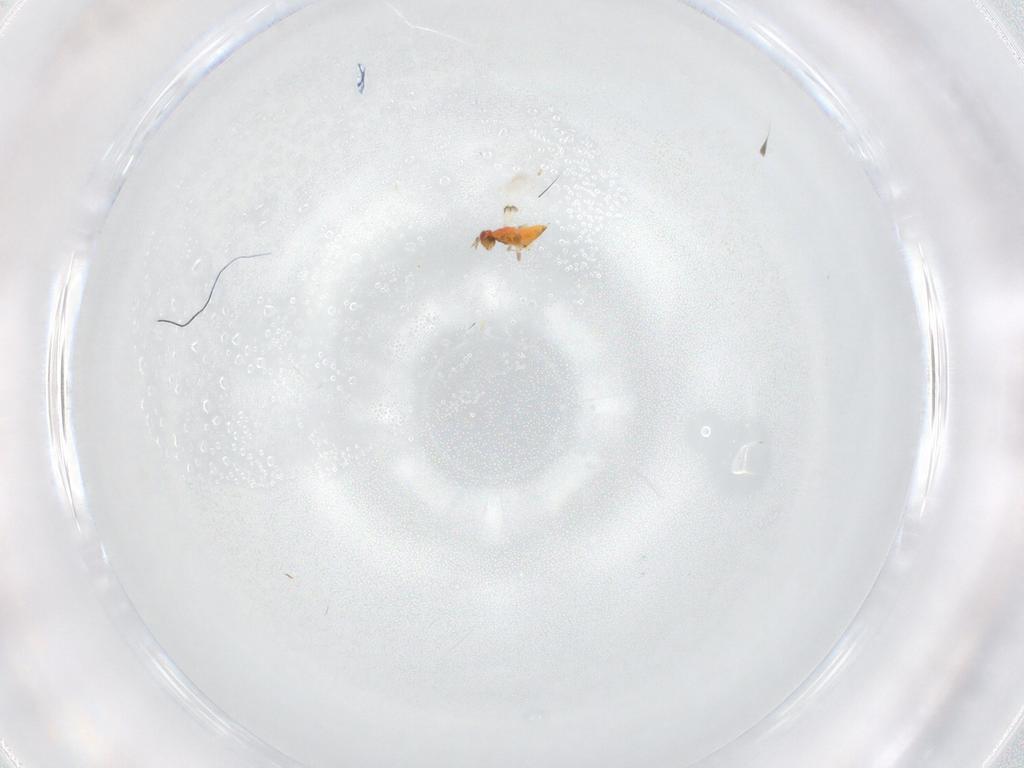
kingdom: Animalia
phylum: Arthropoda
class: Insecta
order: Hymenoptera
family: Trichogrammatidae
